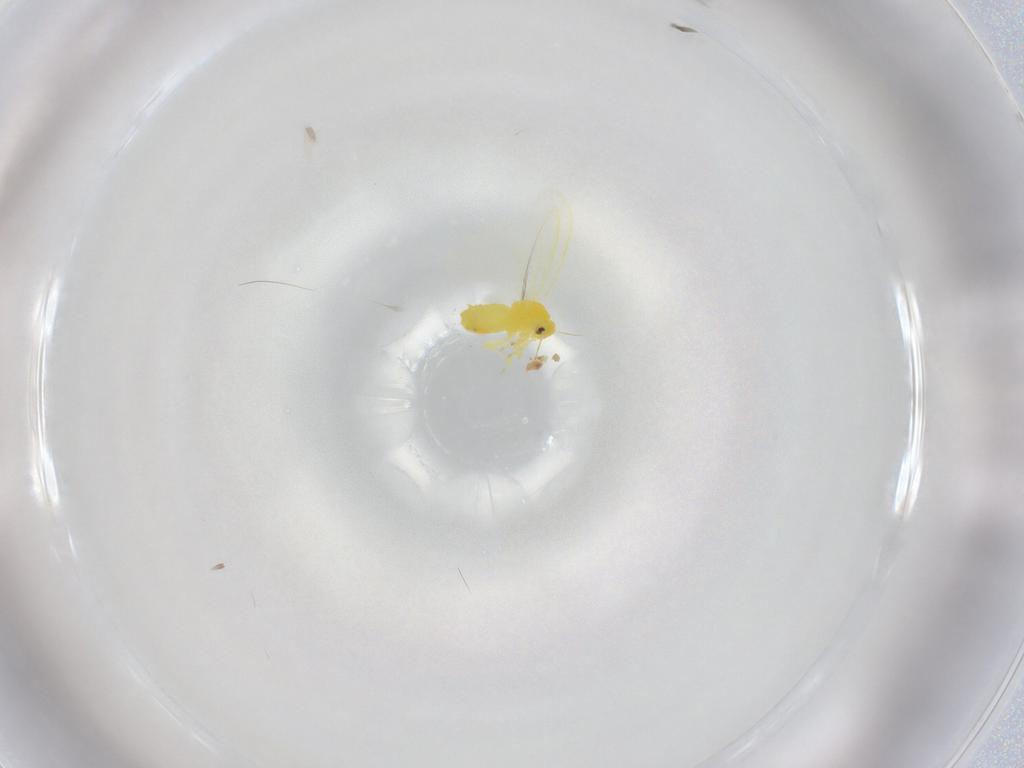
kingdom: Animalia
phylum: Arthropoda
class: Insecta
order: Hemiptera
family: Aleyrodidae
